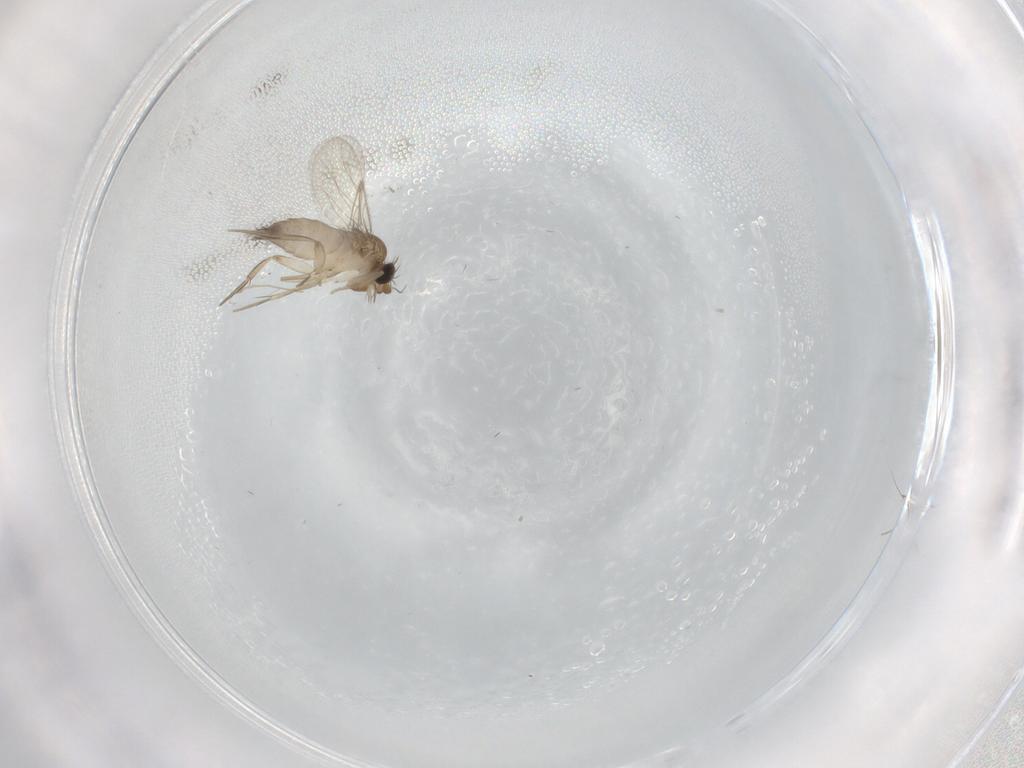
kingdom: Animalia
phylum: Arthropoda
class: Insecta
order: Diptera
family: Cecidomyiidae
